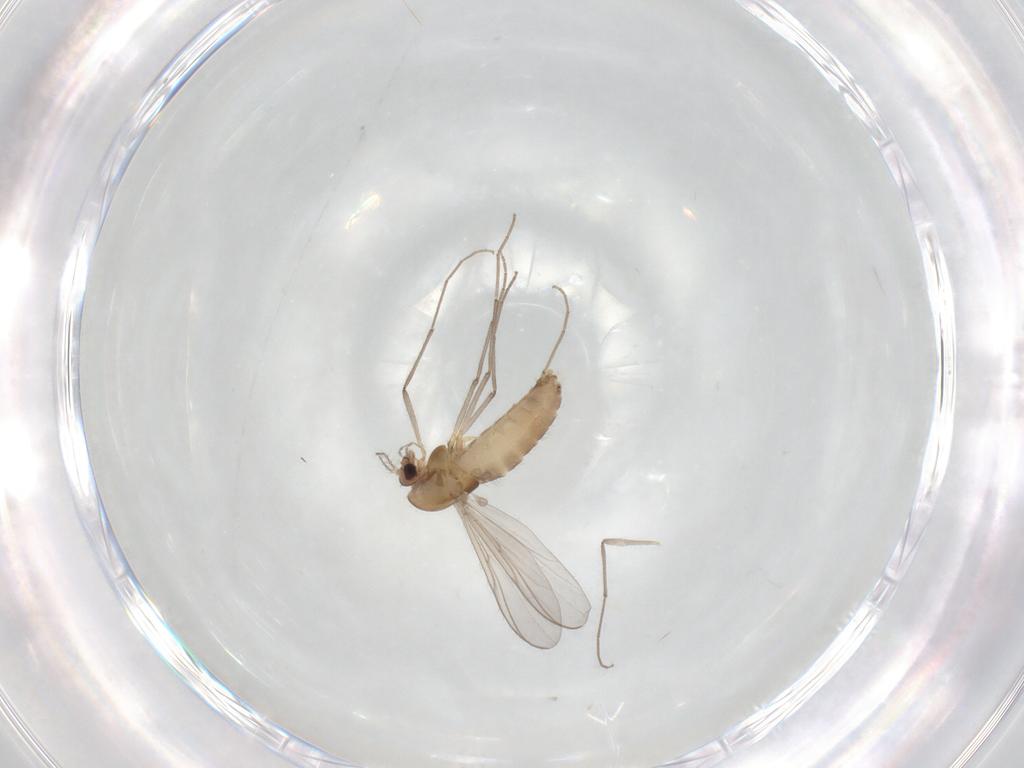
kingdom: Animalia
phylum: Arthropoda
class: Insecta
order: Diptera
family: Chironomidae
